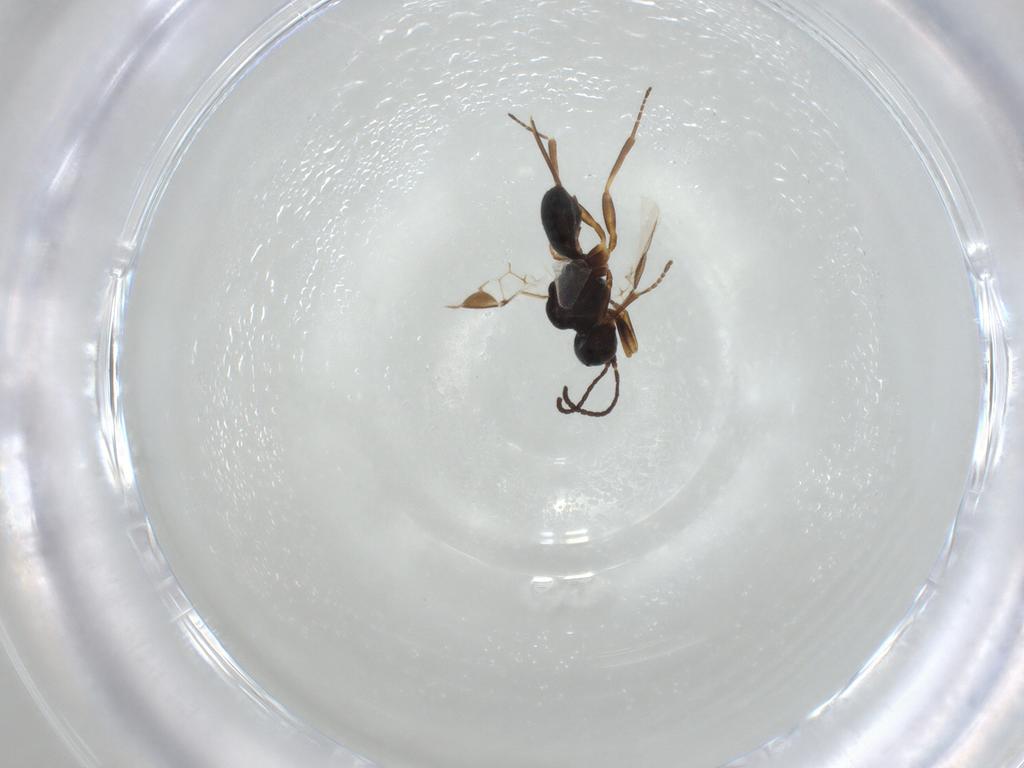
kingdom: Animalia
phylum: Arthropoda
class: Insecta
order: Hymenoptera
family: Braconidae
